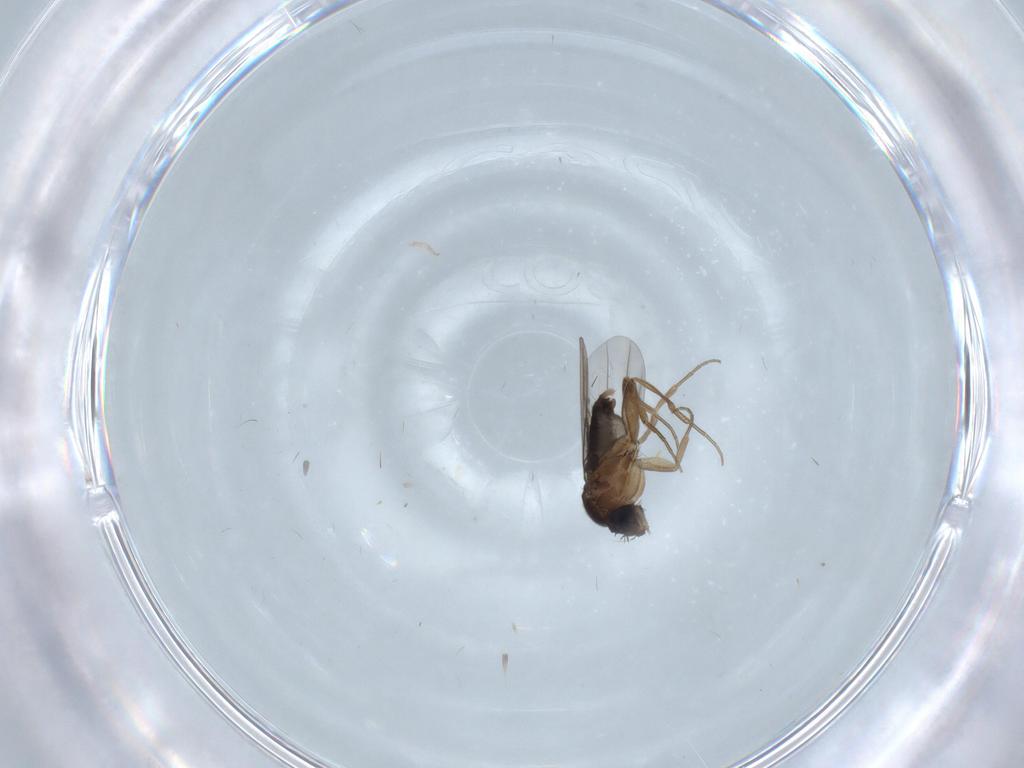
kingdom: Animalia
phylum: Arthropoda
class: Insecta
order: Diptera
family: Phoridae
